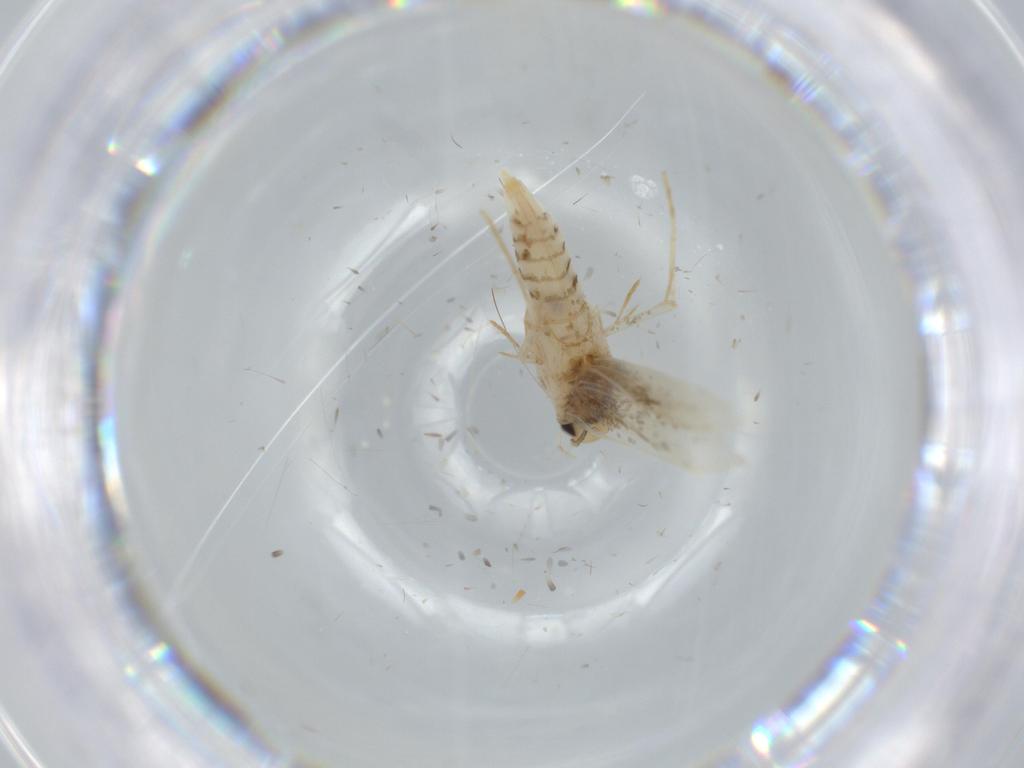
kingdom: Animalia
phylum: Arthropoda
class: Insecta
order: Lepidoptera
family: Tineidae
